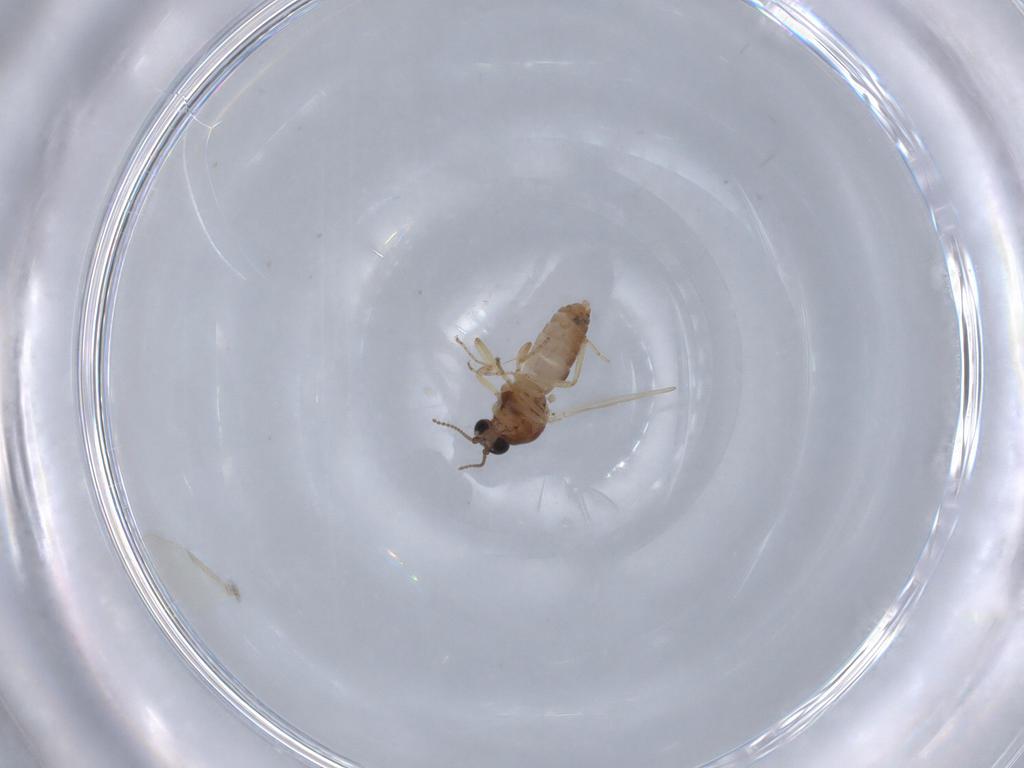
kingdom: Animalia
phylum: Arthropoda
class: Insecta
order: Diptera
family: Ceratopogonidae
